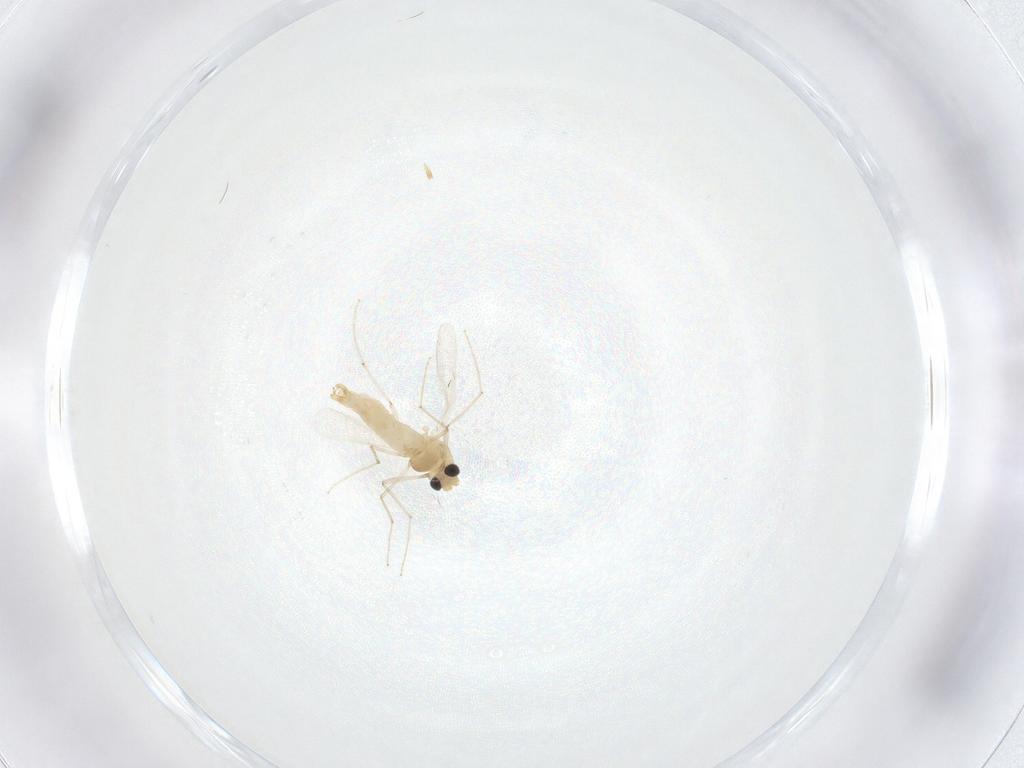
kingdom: Animalia
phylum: Arthropoda
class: Insecta
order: Diptera
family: Chironomidae
